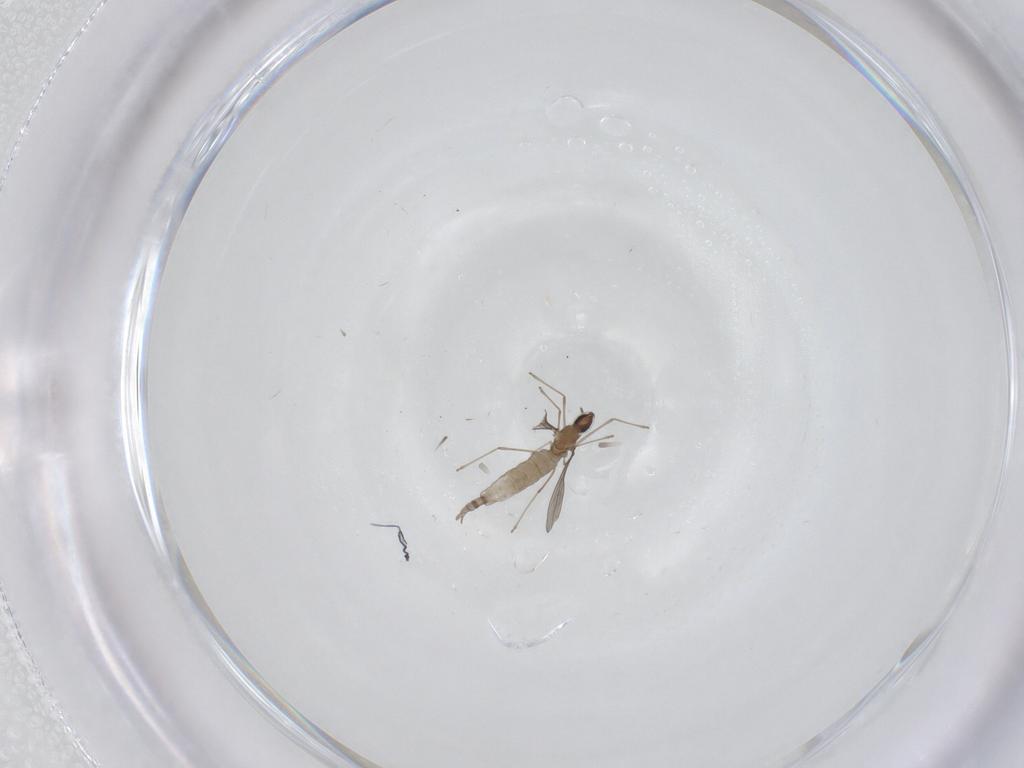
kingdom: Animalia
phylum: Arthropoda
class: Insecta
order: Diptera
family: Cecidomyiidae
